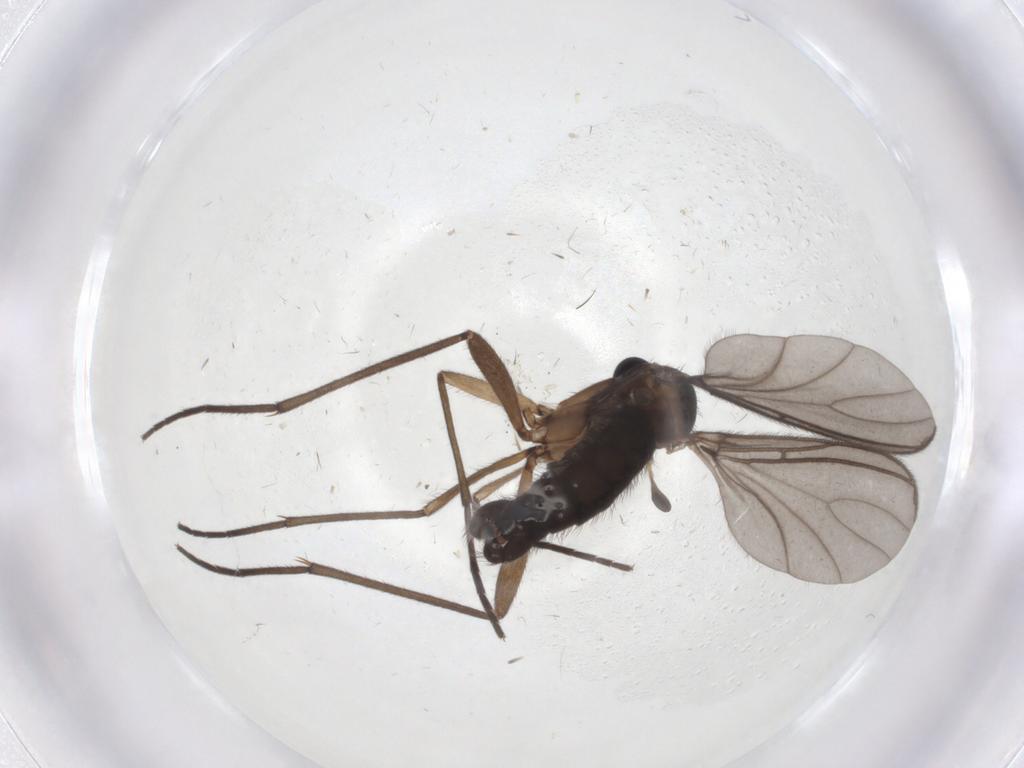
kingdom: Animalia
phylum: Arthropoda
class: Insecta
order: Diptera
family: Sciaridae
